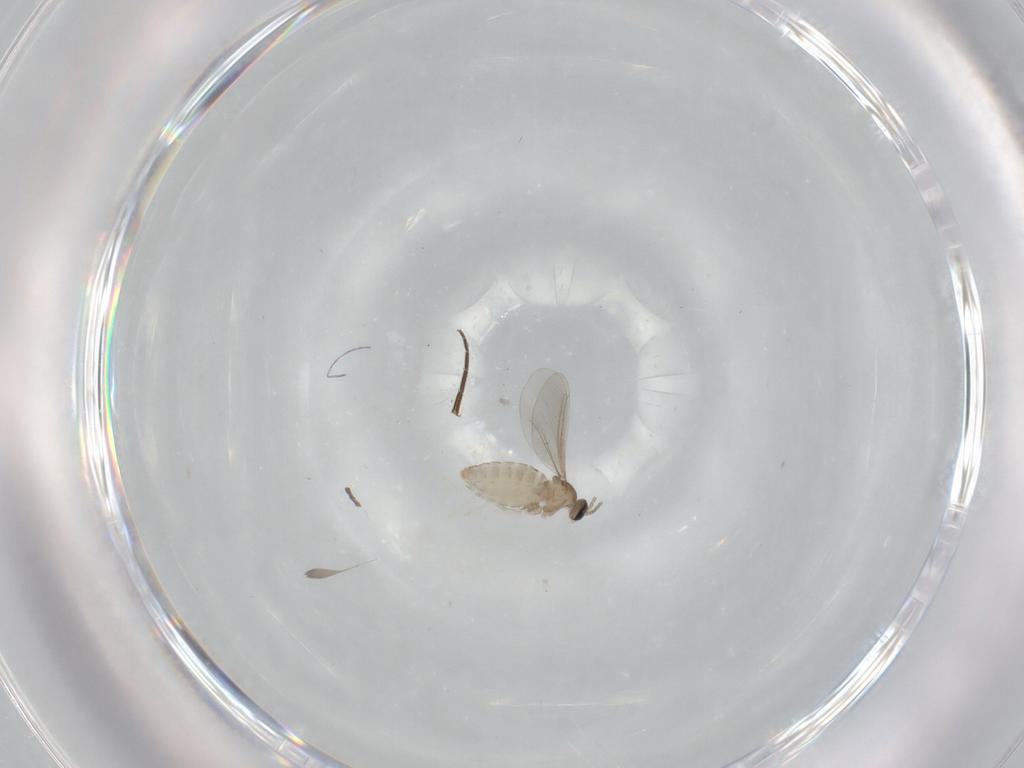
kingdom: Animalia
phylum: Arthropoda
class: Insecta
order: Diptera
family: Phoridae
